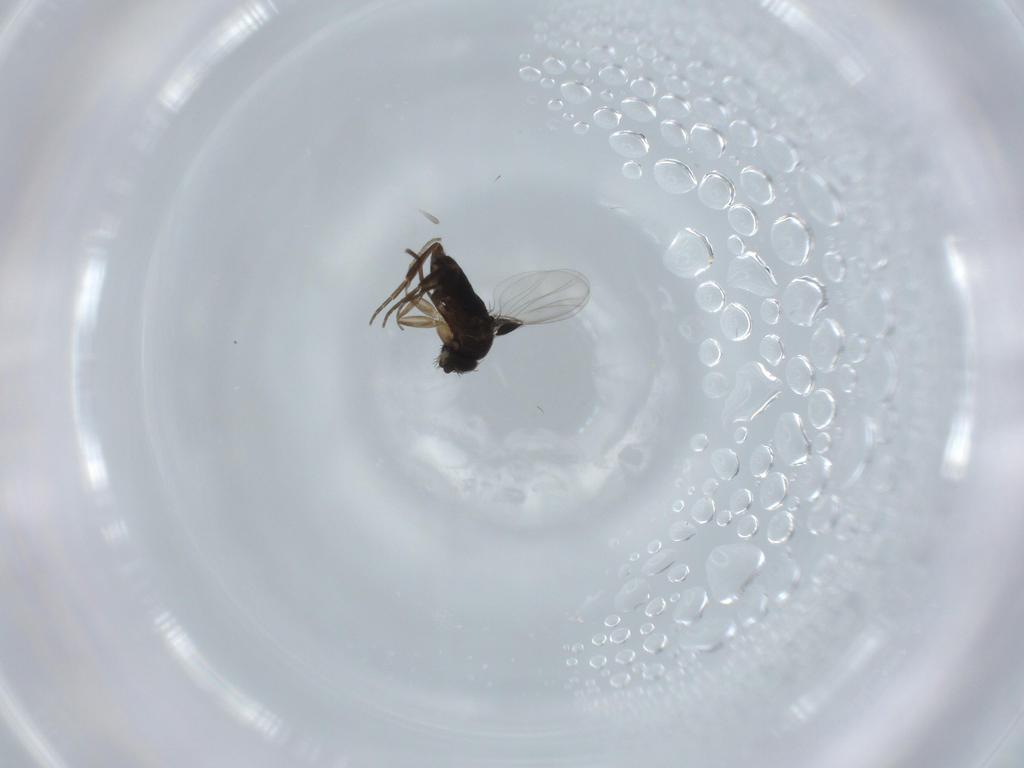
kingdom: Animalia
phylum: Arthropoda
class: Insecta
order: Diptera
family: Phoridae
